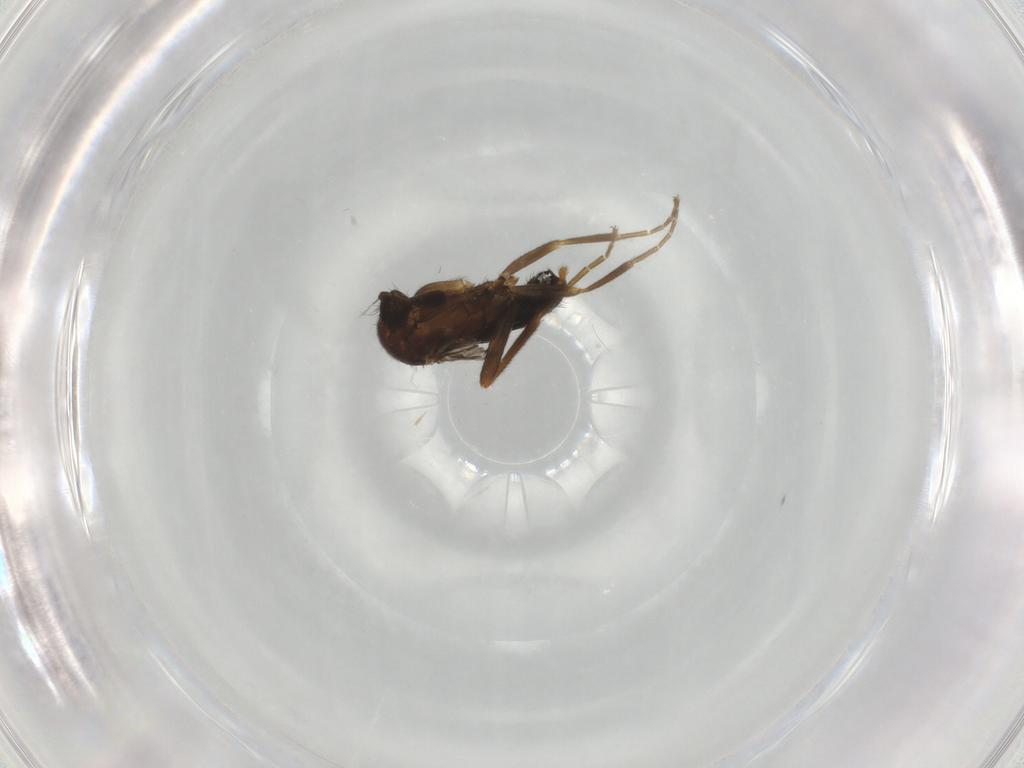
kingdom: Animalia
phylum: Arthropoda
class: Insecta
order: Diptera
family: Phoridae
